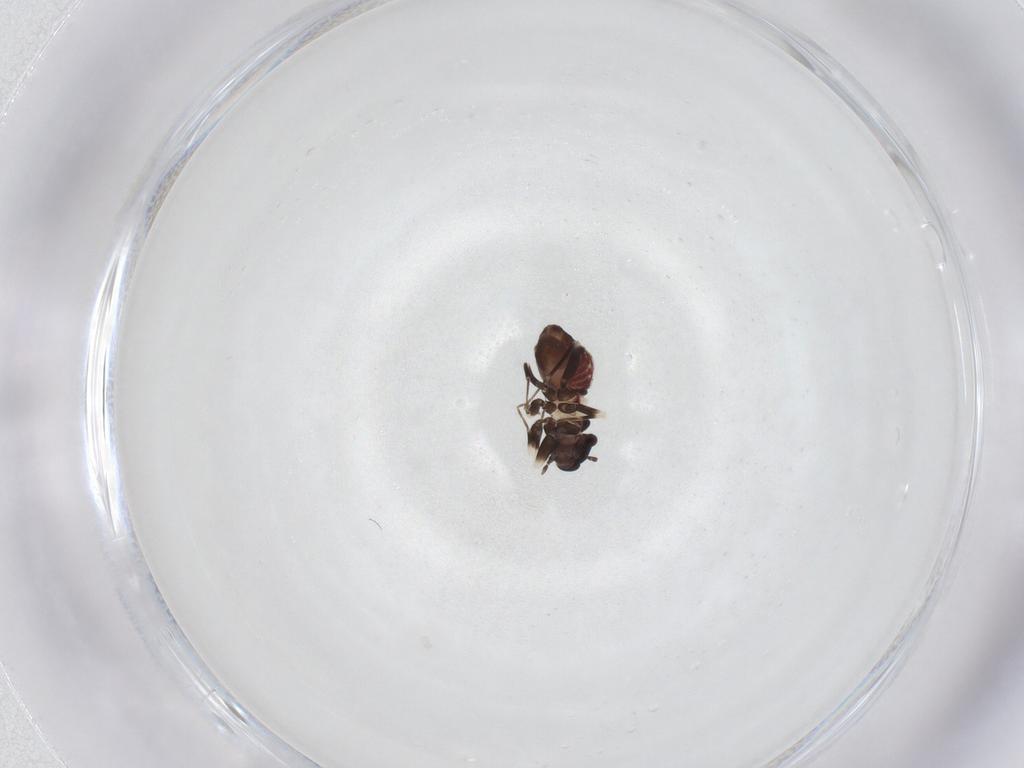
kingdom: Animalia
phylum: Arthropoda
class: Insecta
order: Psocodea
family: Lepidopsocidae
